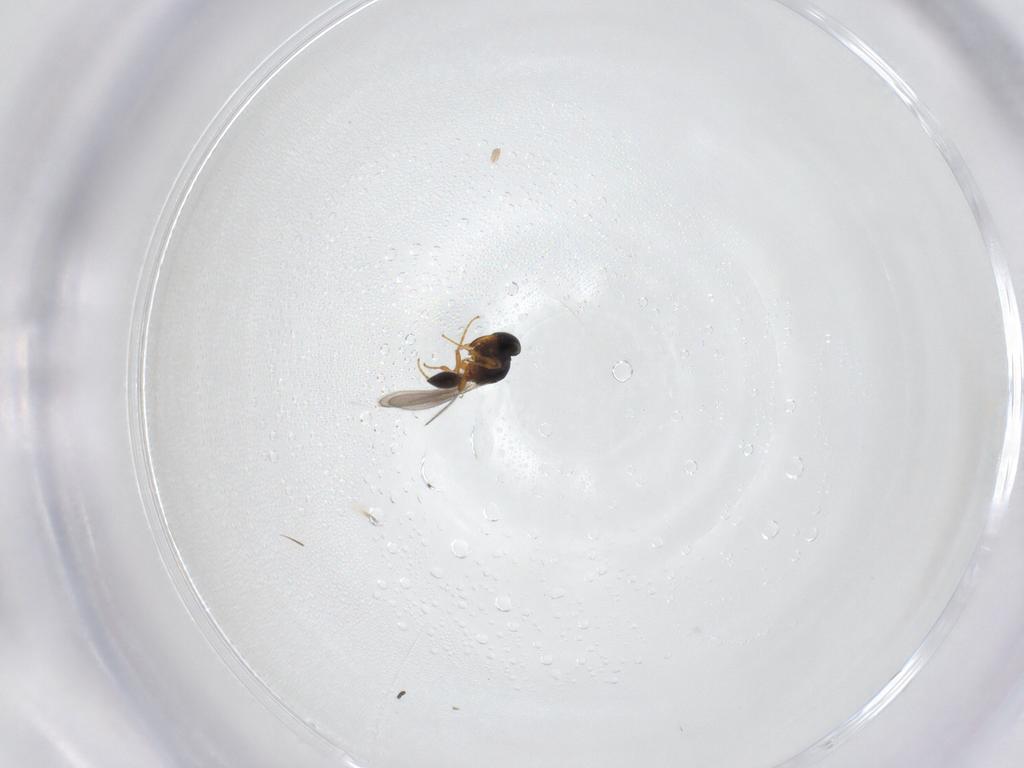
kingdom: Animalia
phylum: Arthropoda
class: Insecta
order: Diptera
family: Sciaridae
